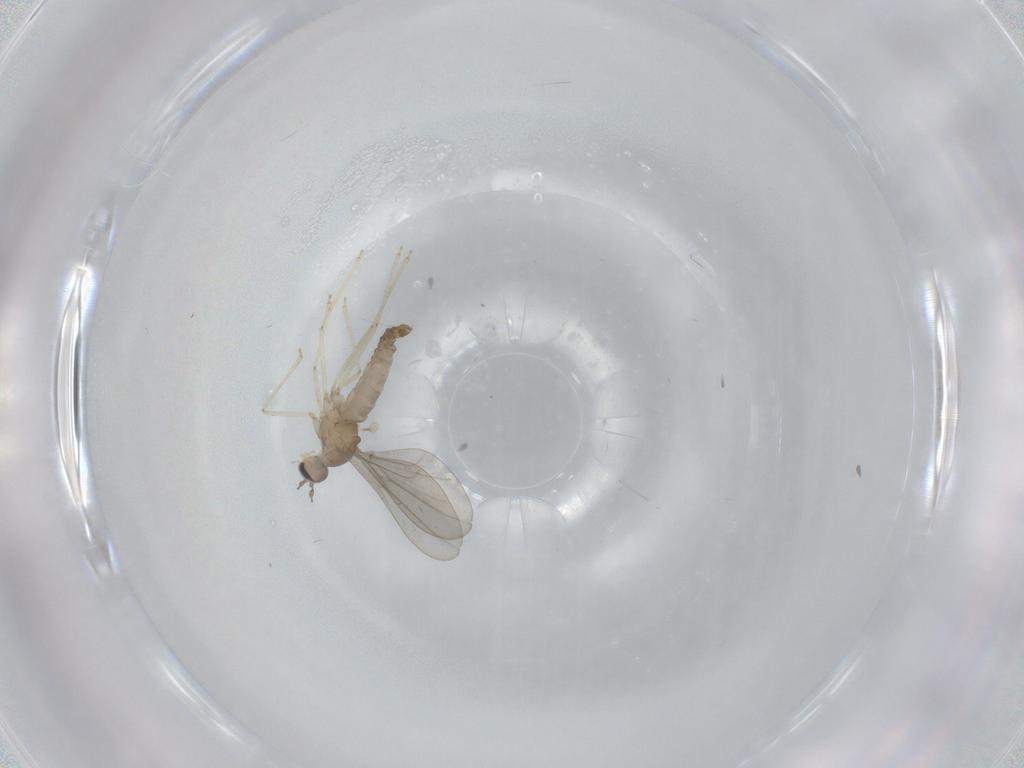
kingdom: Animalia
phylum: Arthropoda
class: Insecta
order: Diptera
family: Cecidomyiidae
